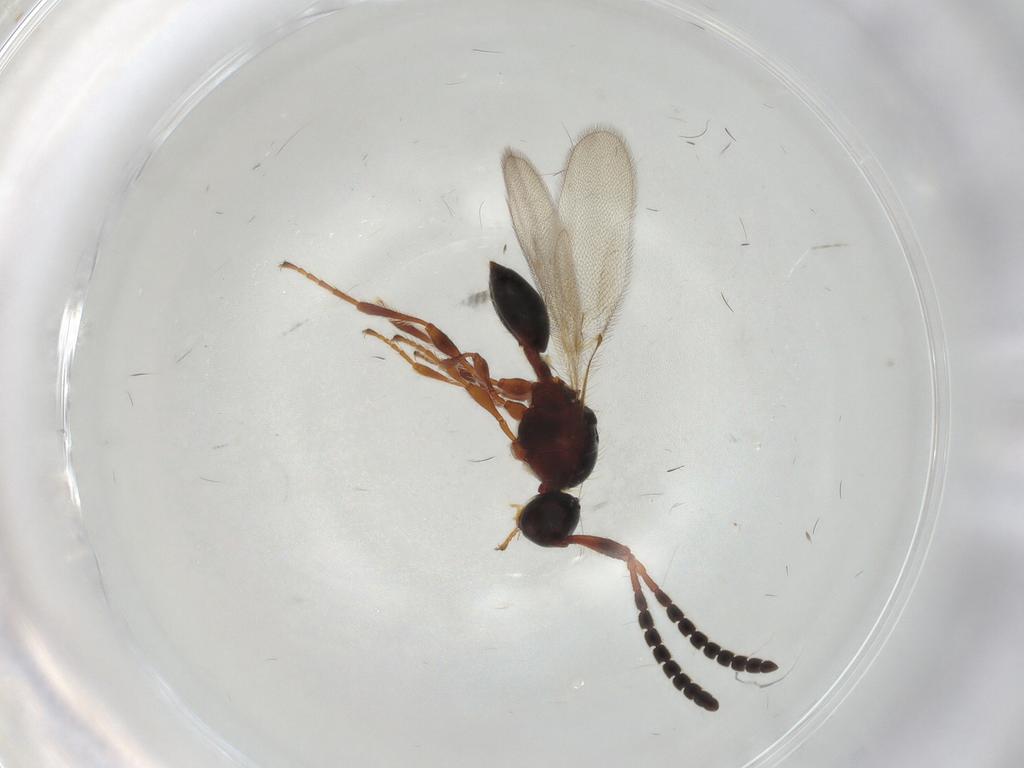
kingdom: Animalia
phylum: Arthropoda
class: Insecta
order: Hymenoptera
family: Diapriidae
